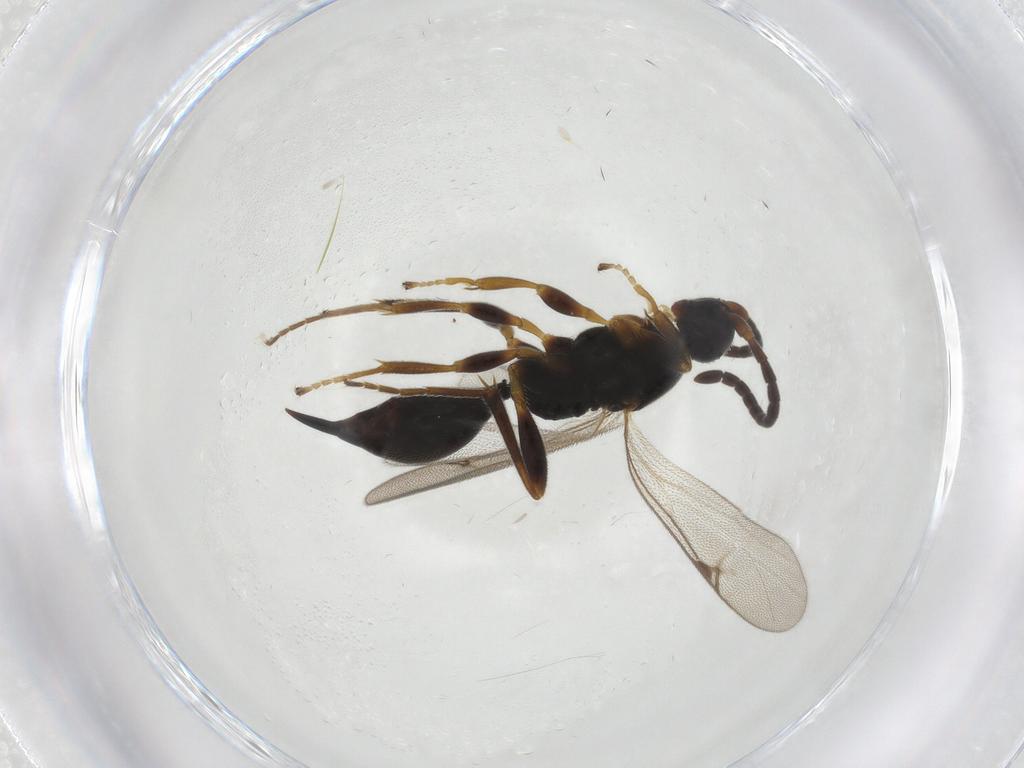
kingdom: Animalia
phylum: Arthropoda
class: Insecta
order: Hymenoptera
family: Proctotrupidae
